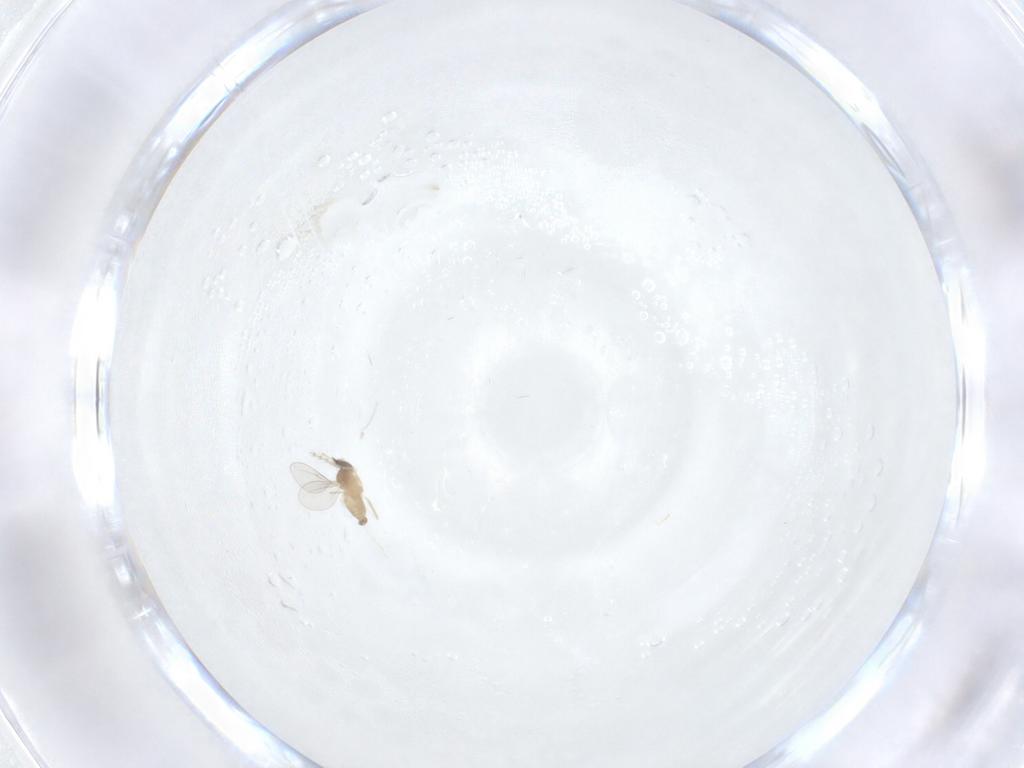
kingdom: Animalia
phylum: Arthropoda
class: Insecta
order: Diptera
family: Cecidomyiidae
